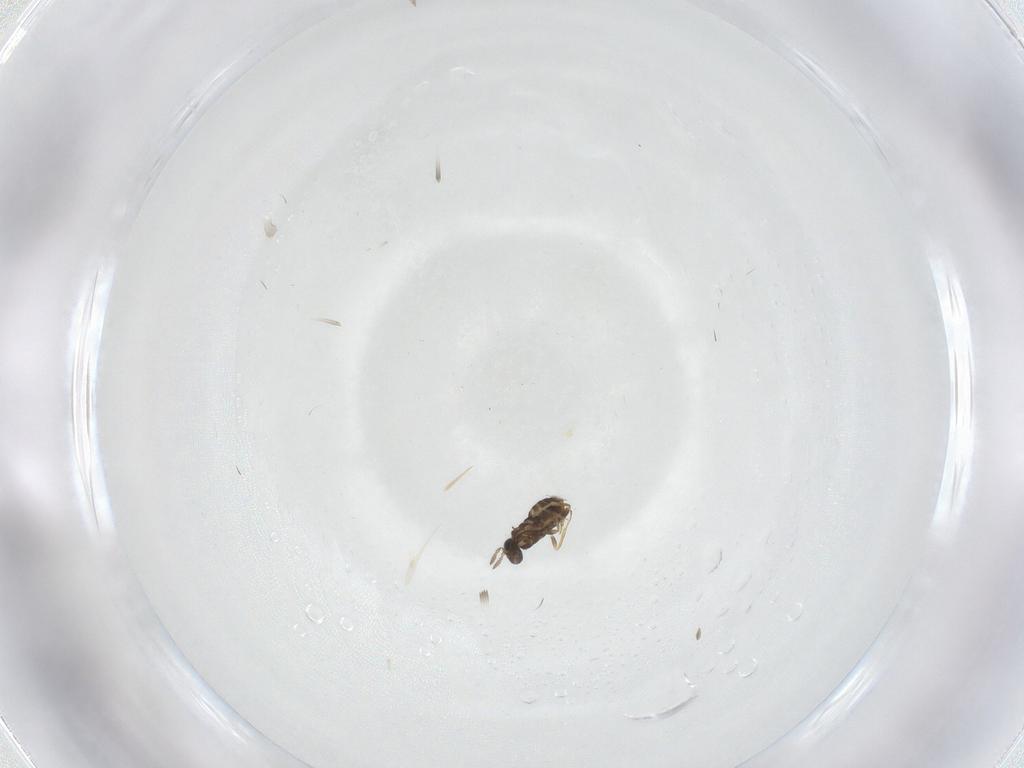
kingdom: Animalia
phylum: Arthropoda
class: Insecta
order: Hymenoptera
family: Trichogrammatidae
